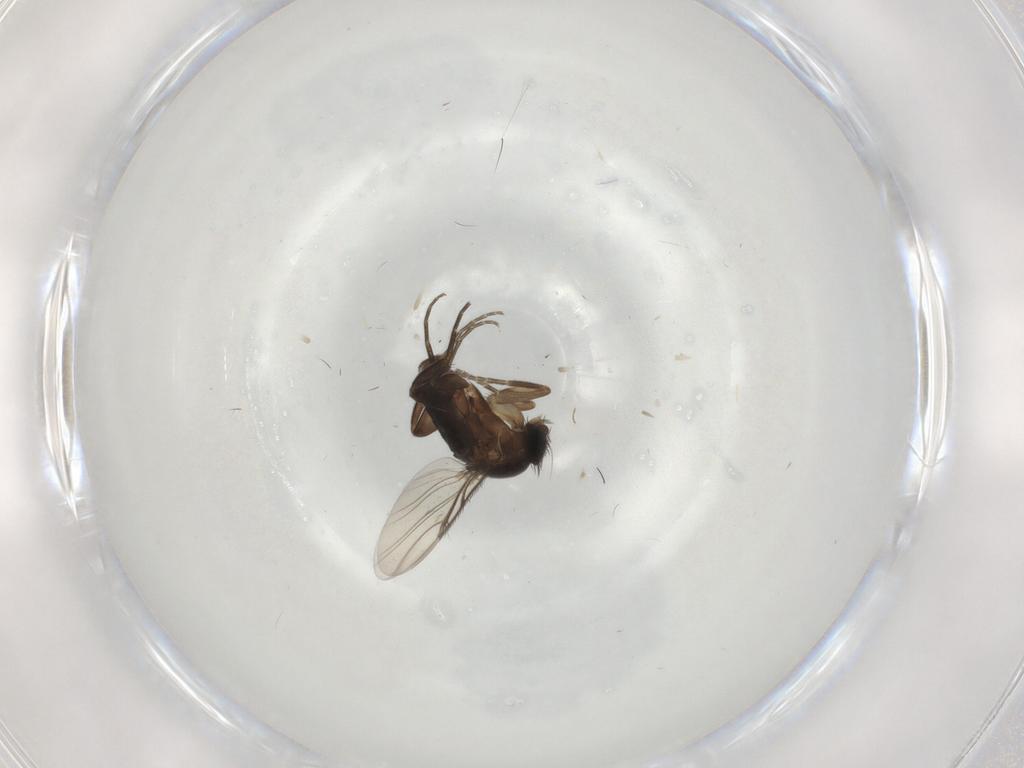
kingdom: Animalia
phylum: Arthropoda
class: Insecta
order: Diptera
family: Phoridae
